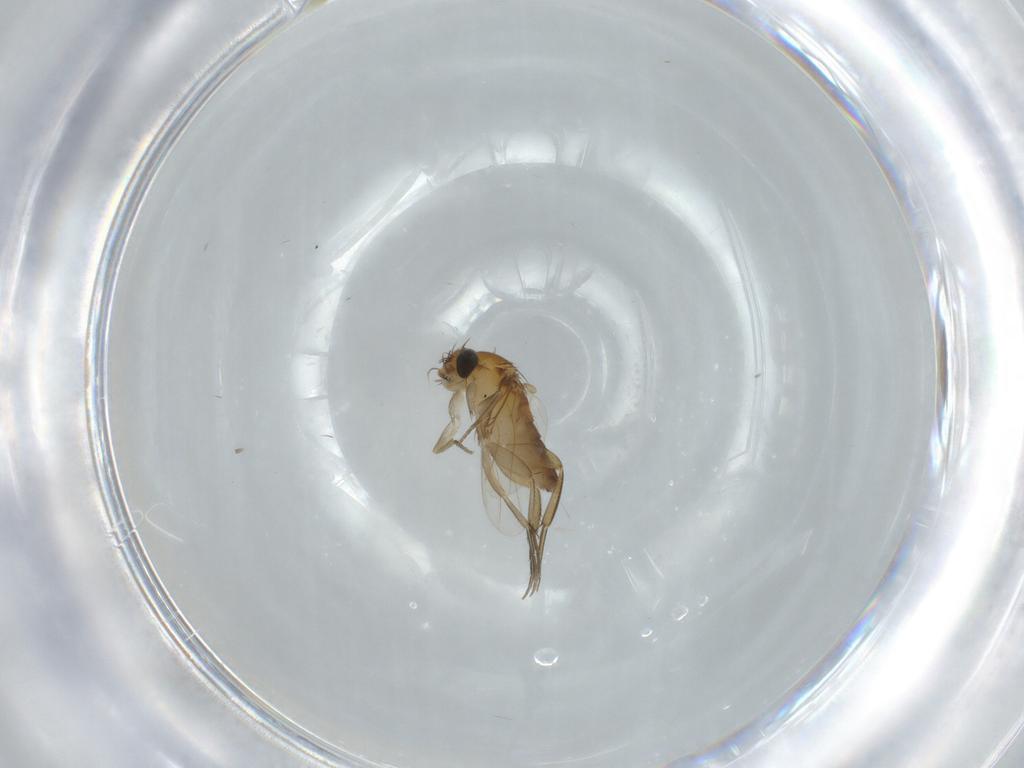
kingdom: Animalia
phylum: Arthropoda
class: Insecta
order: Diptera
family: Phoridae
